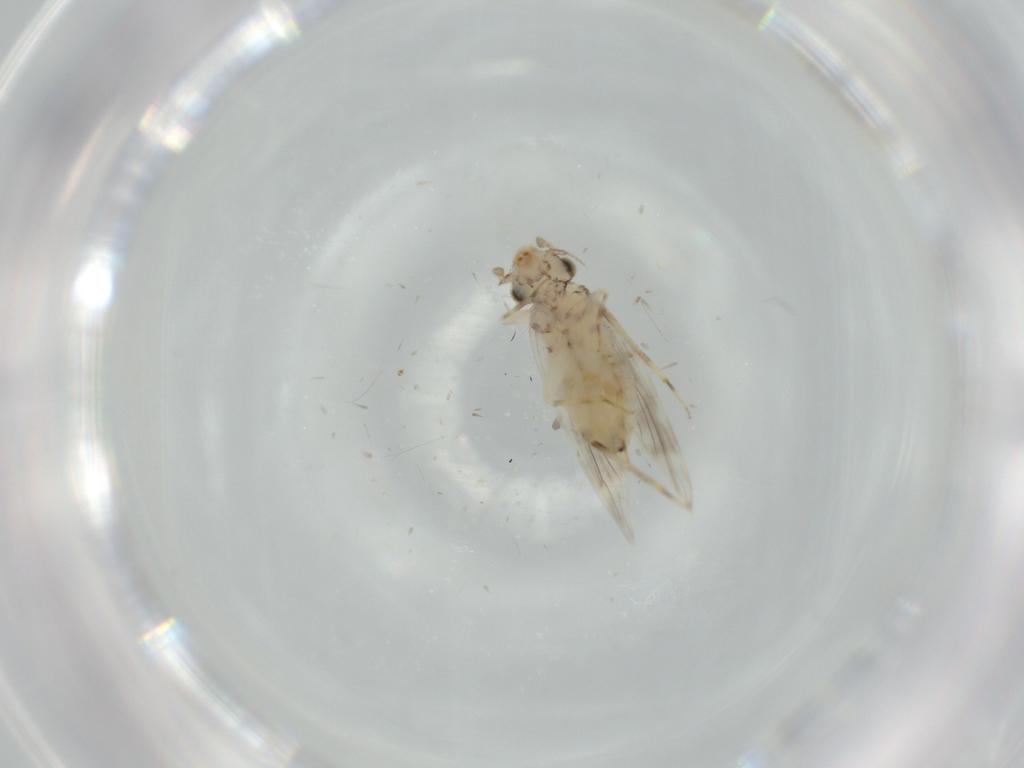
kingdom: Animalia
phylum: Arthropoda
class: Insecta
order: Psocodea
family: Lepidopsocidae
